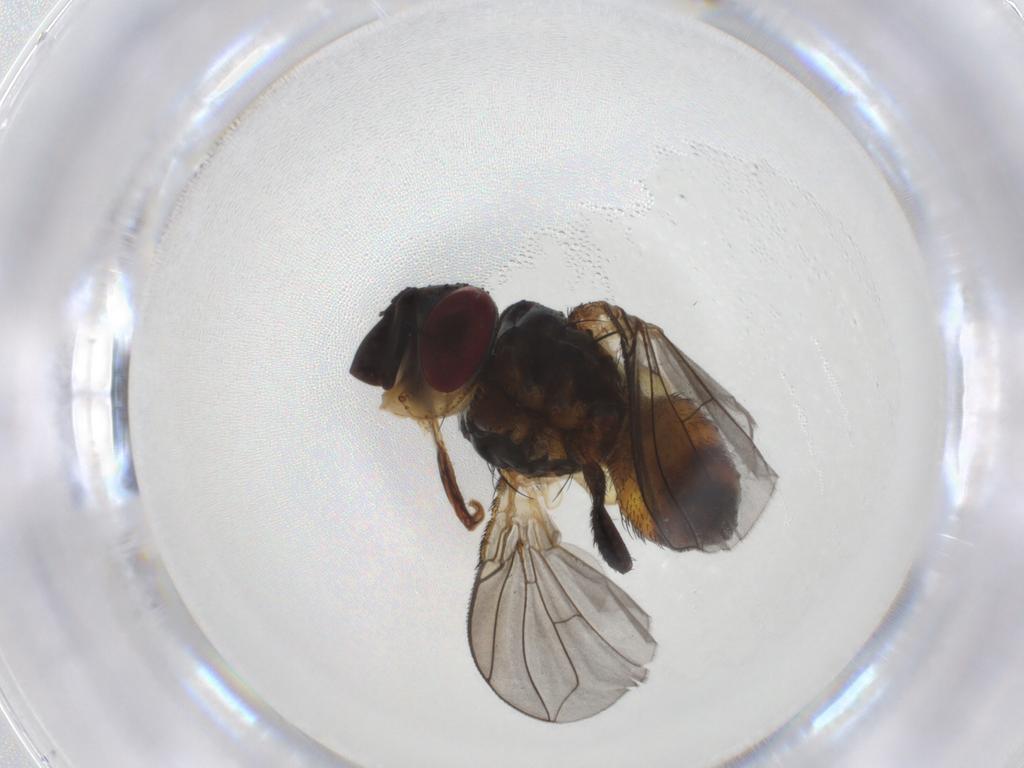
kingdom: Animalia
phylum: Arthropoda
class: Insecta
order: Diptera
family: Tachinidae
